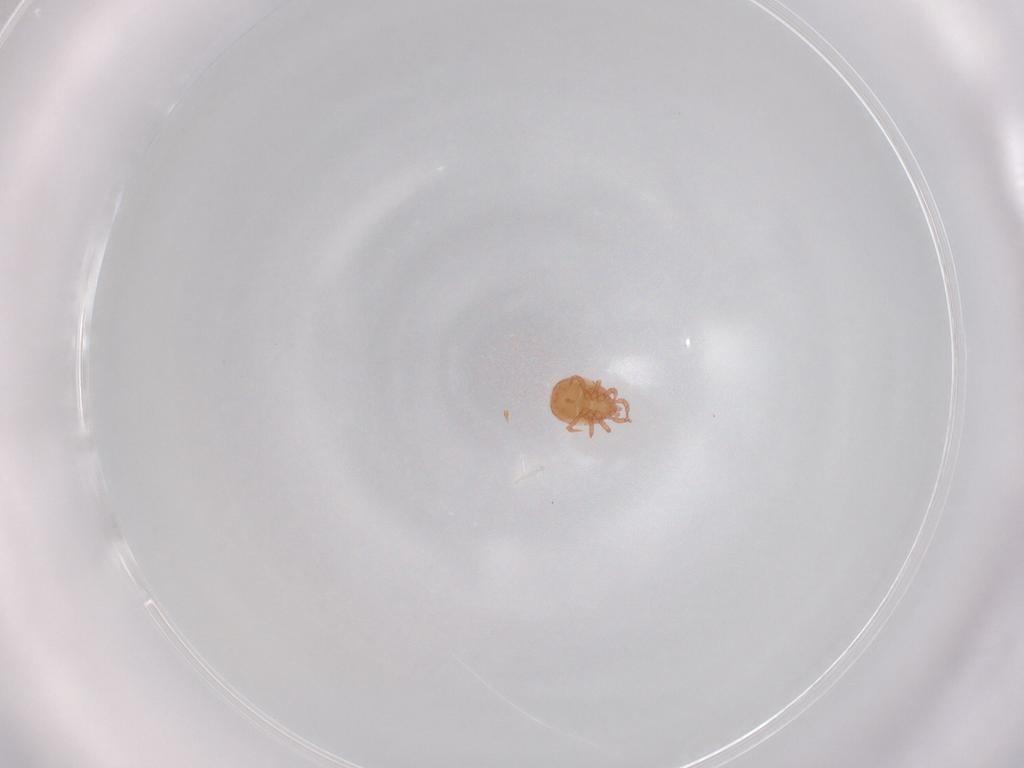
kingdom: Animalia
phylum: Arthropoda
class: Arachnida
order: Mesostigmata
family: Zerconidae
